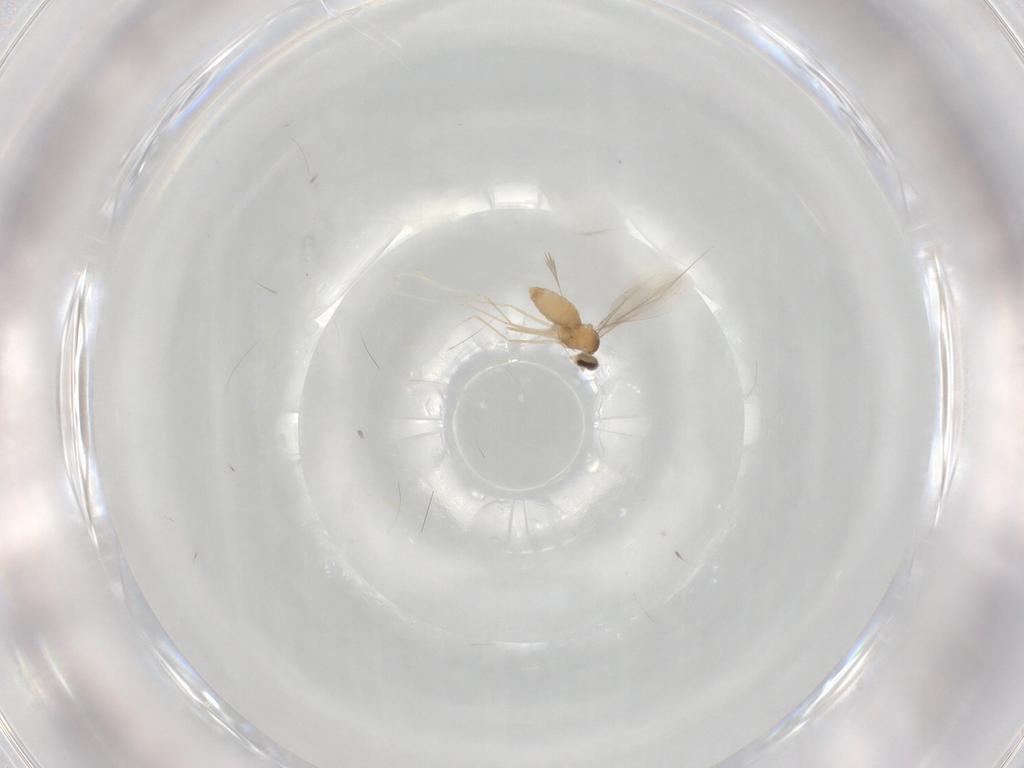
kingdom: Animalia
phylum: Arthropoda
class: Insecta
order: Diptera
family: Cecidomyiidae
